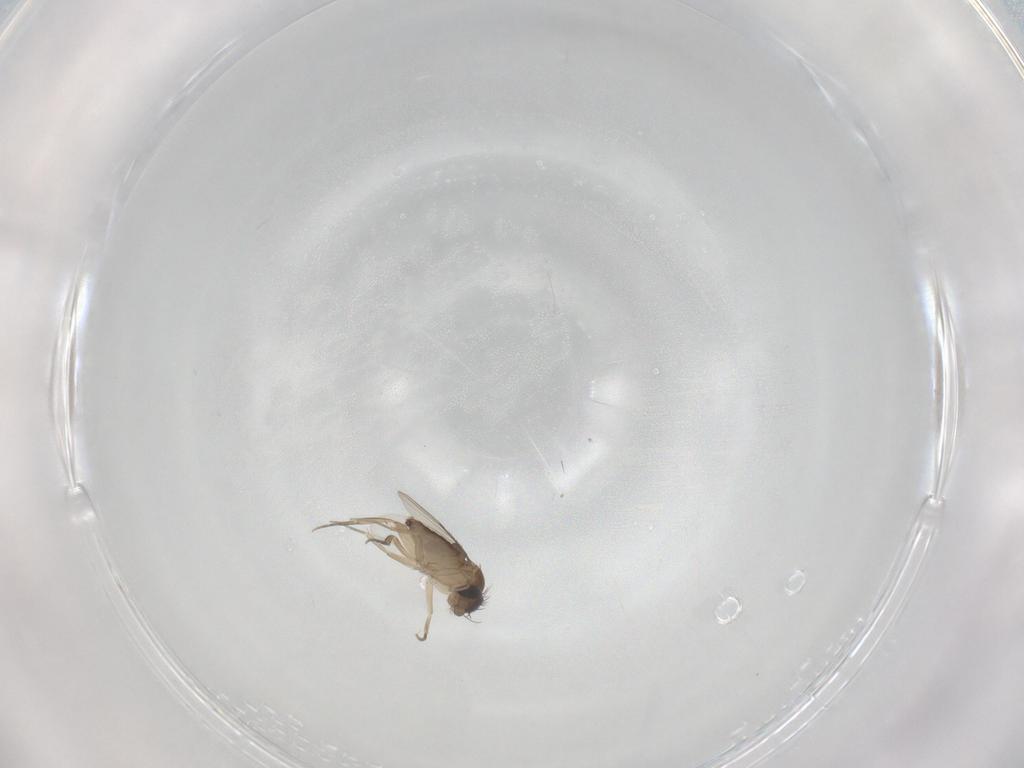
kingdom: Animalia
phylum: Arthropoda
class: Insecta
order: Diptera
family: Phoridae
